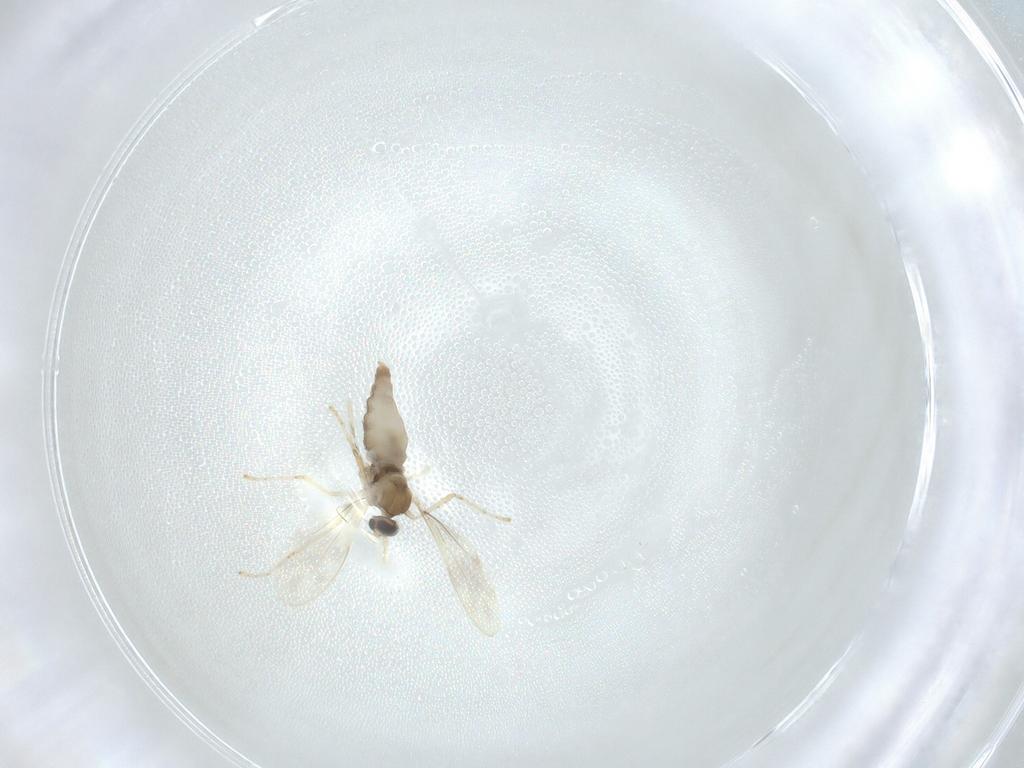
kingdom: Animalia
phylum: Arthropoda
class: Insecta
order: Diptera
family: Cecidomyiidae
